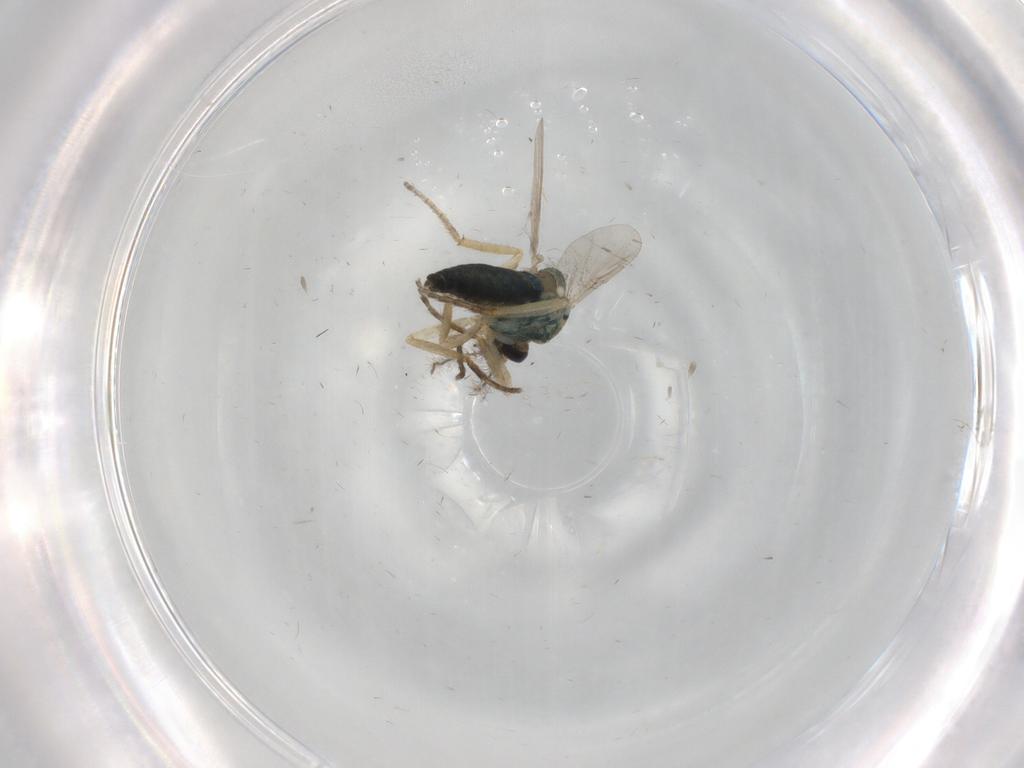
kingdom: Animalia
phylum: Arthropoda
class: Insecta
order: Diptera
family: Ceratopogonidae
